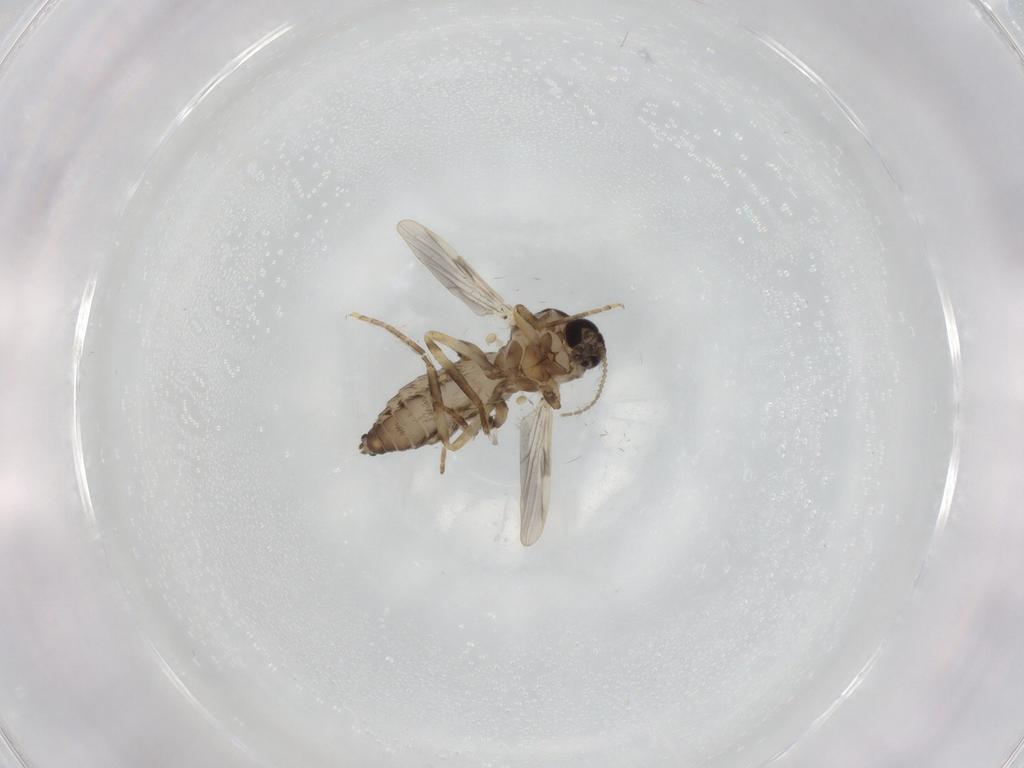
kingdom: Animalia
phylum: Arthropoda
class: Insecta
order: Diptera
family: Ceratopogonidae
